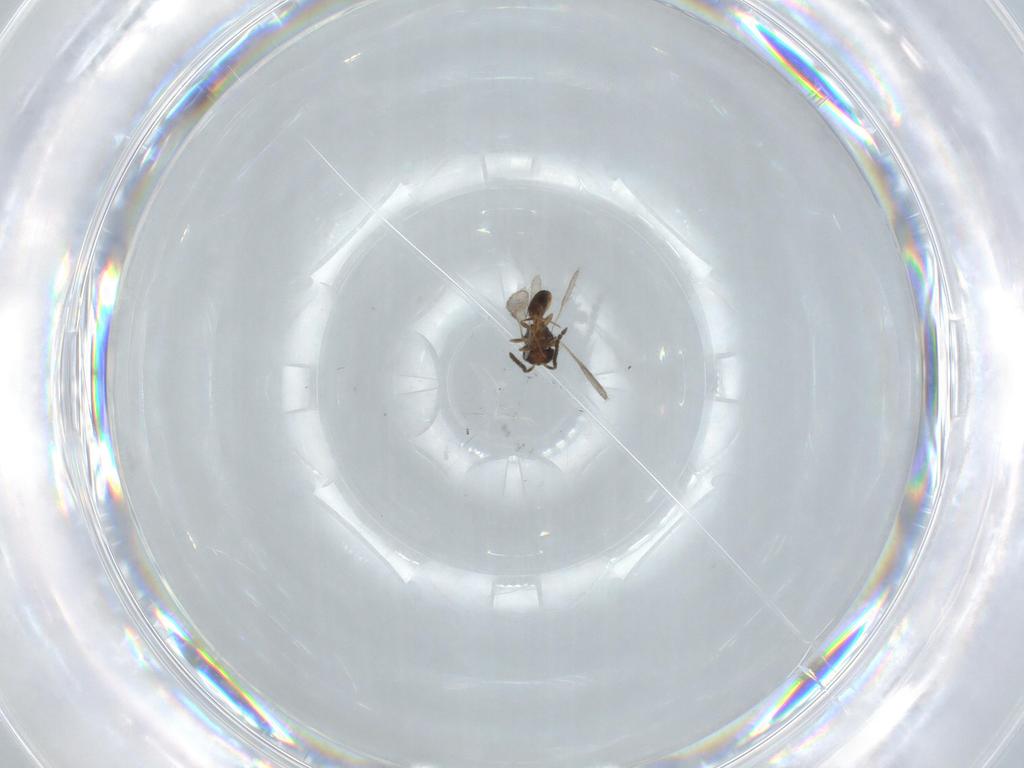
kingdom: Animalia
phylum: Arthropoda
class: Insecta
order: Hymenoptera
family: Scelionidae
